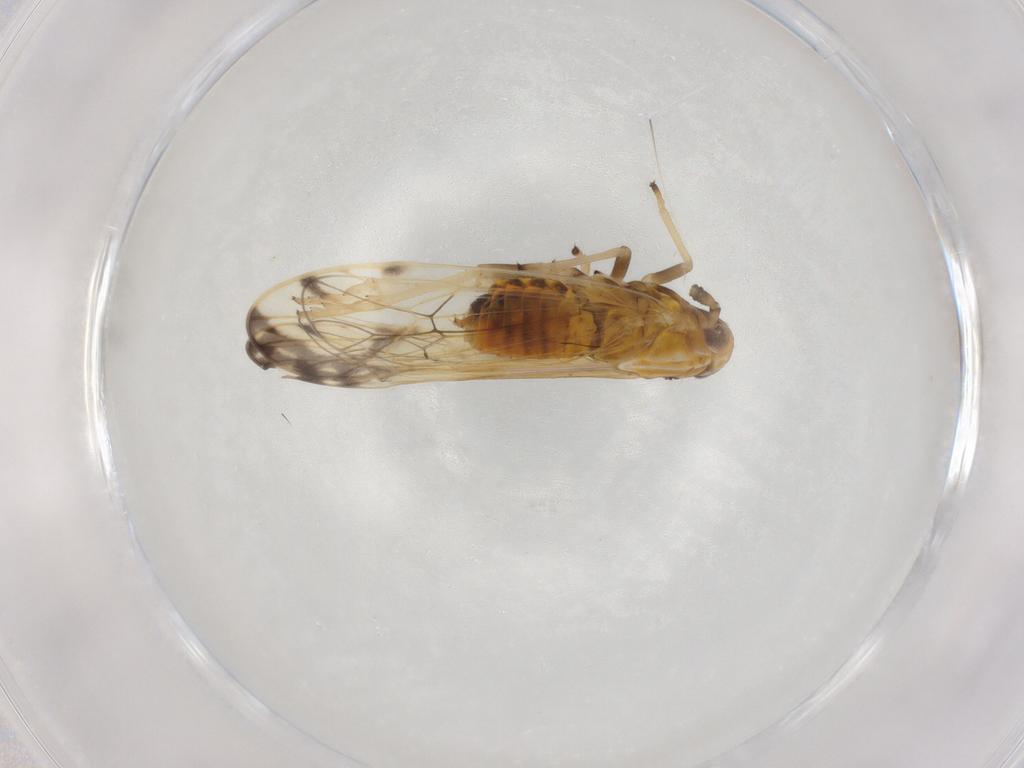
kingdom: Animalia
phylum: Arthropoda
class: Insecta
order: Hemiptera
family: Delphacidae
